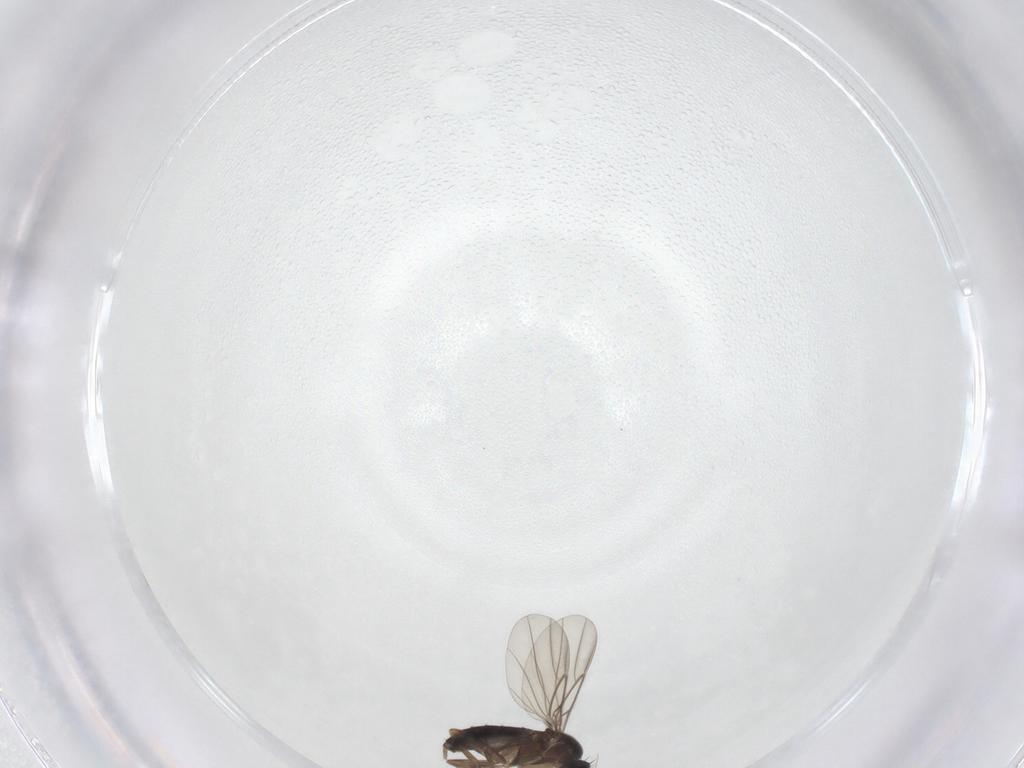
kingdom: Animalia
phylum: Arthropoda
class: Insecta
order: Diptera
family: Phoridae
